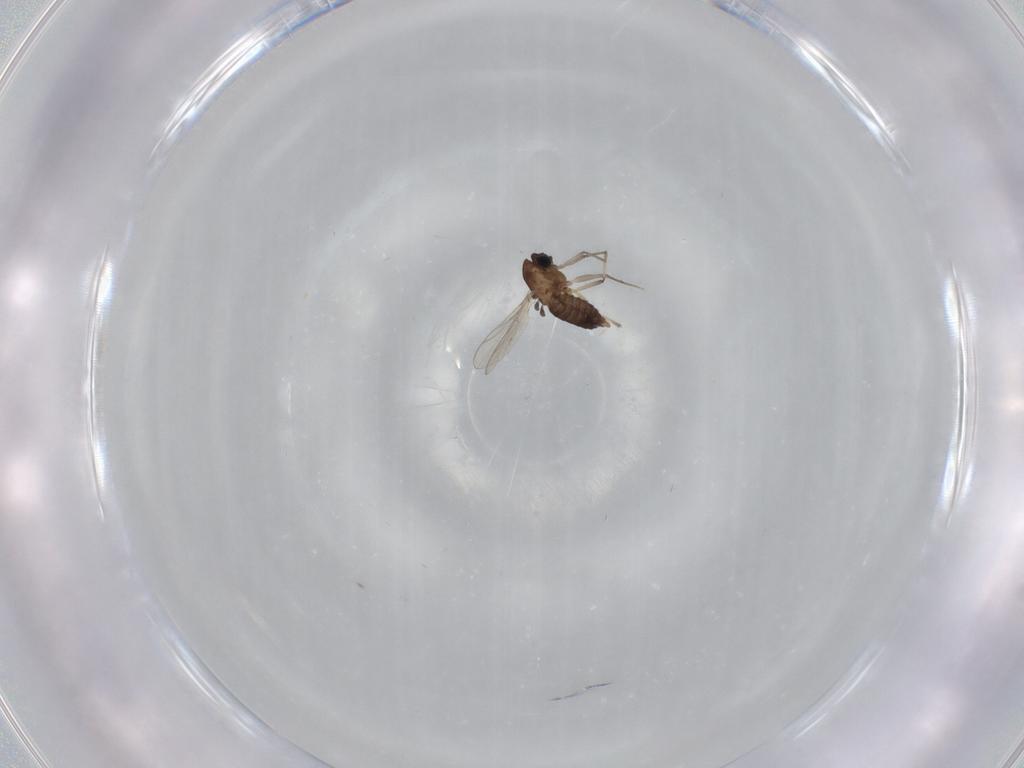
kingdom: Animalia
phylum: Arthropoda
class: Insecta
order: Diptera
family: Chironomidae
